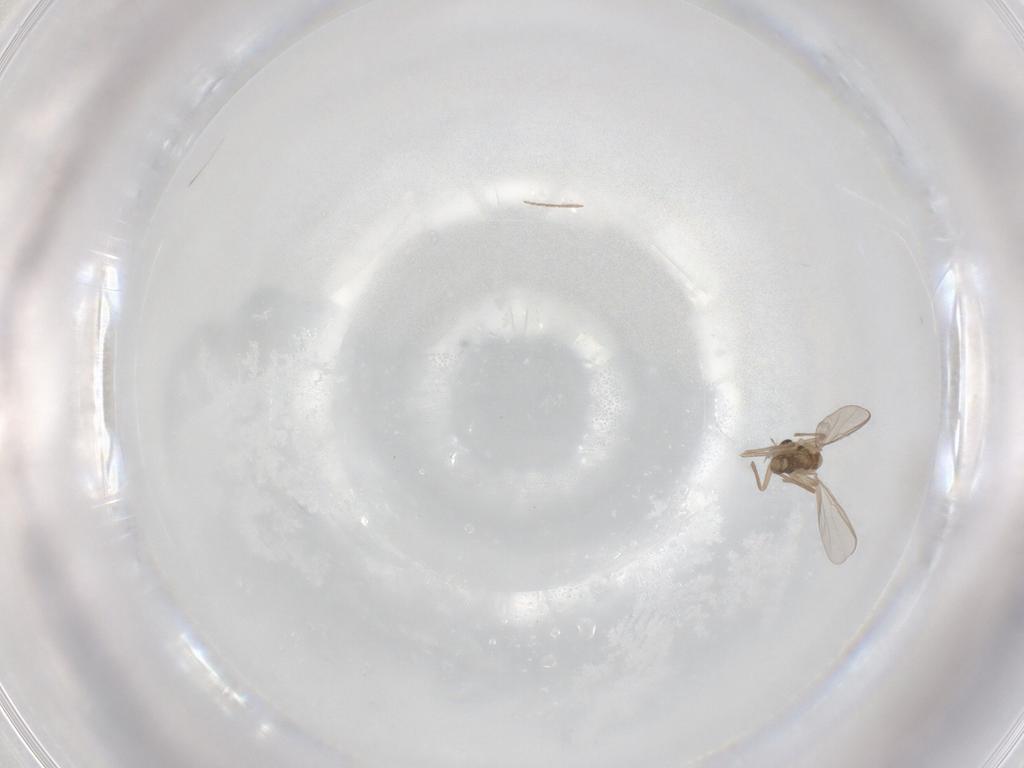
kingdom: Animalia
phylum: Arthropoda
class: Insecta
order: Diptera
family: Chironomidae
